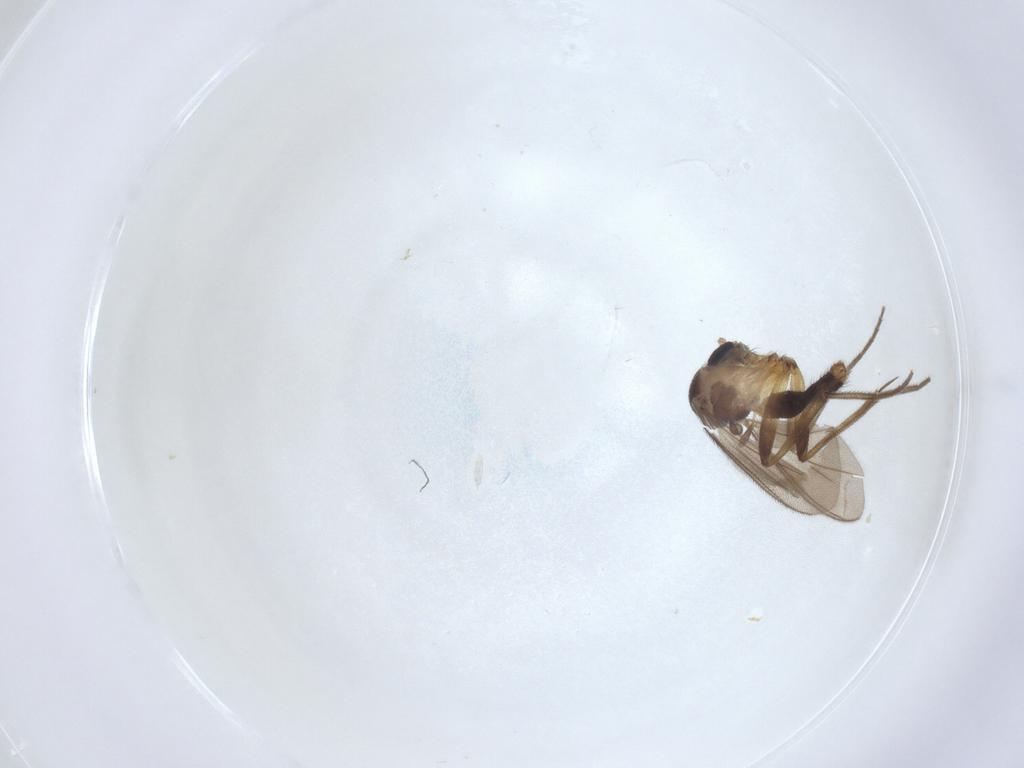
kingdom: Animalia
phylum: Arthropoda
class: Insecta
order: Diptera
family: Mycetophilidae
